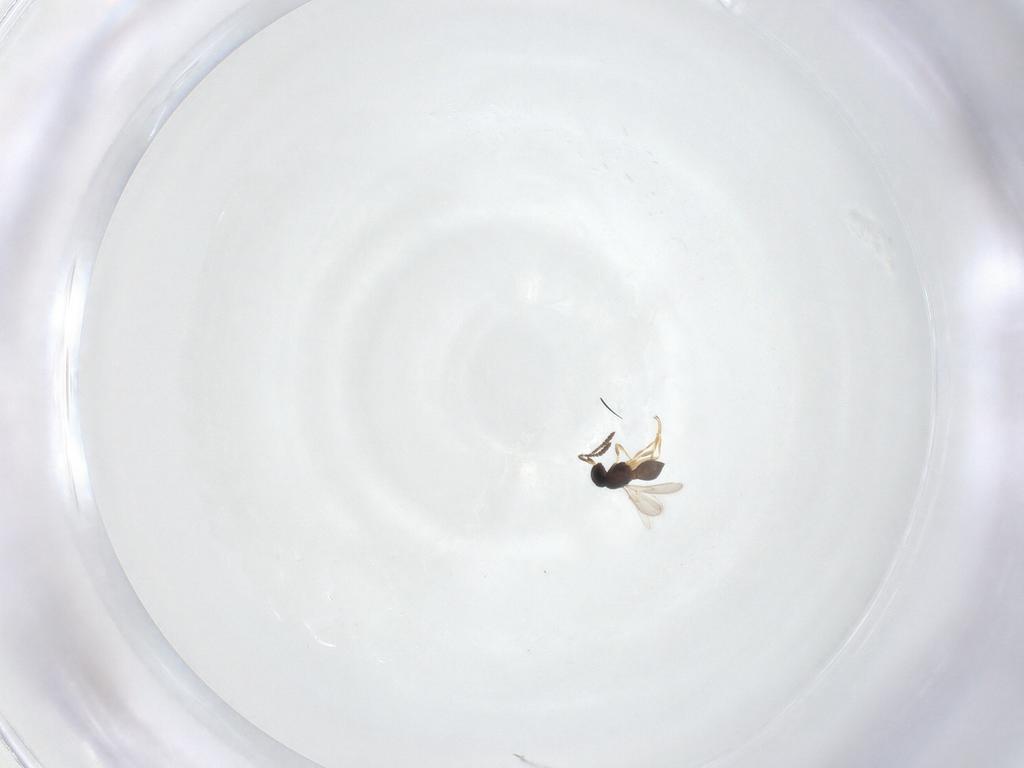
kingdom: Animalia
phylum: Arthropoda
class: Insecta
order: Hymenoptera
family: Scelionidae
